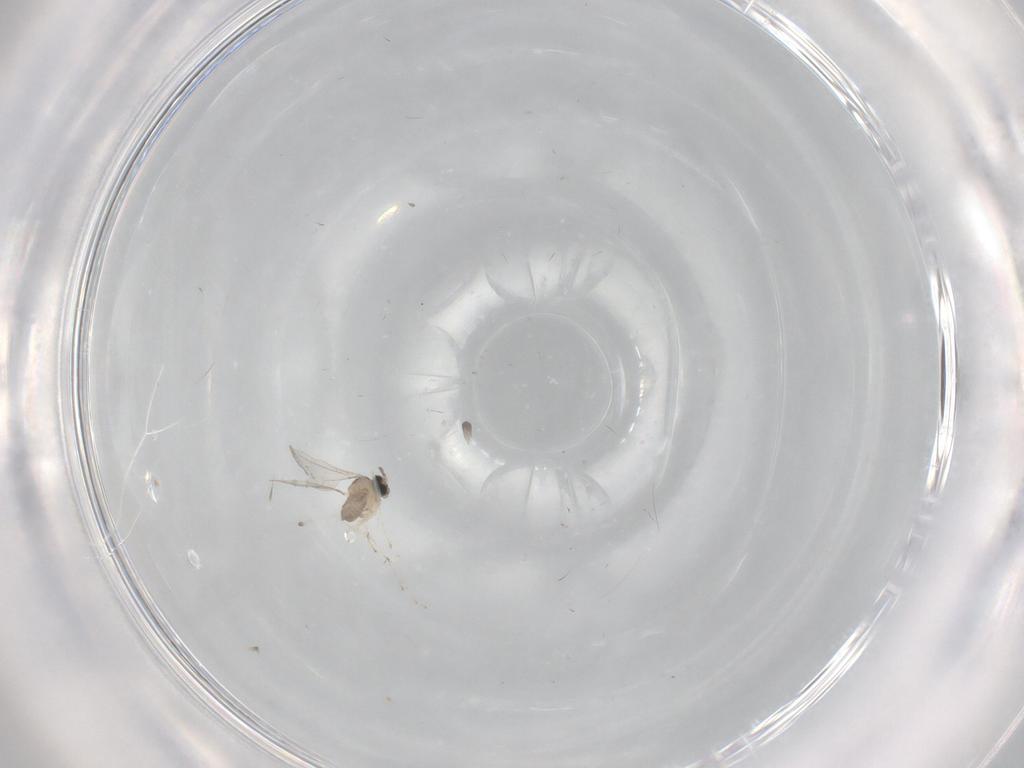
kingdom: Animalia
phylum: Arthropoda
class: Insecta
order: Diptera
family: Cecidomyiidae
